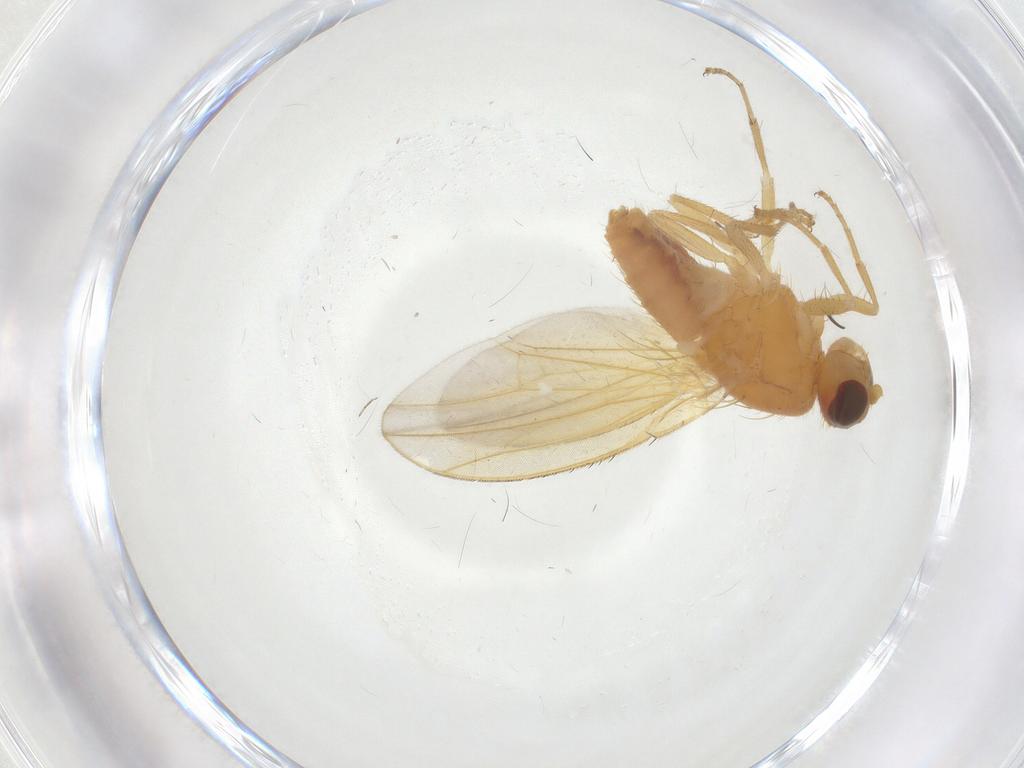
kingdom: Animalia
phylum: Arthropoda
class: Insecta
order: Diptera
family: Heleomyzidae
